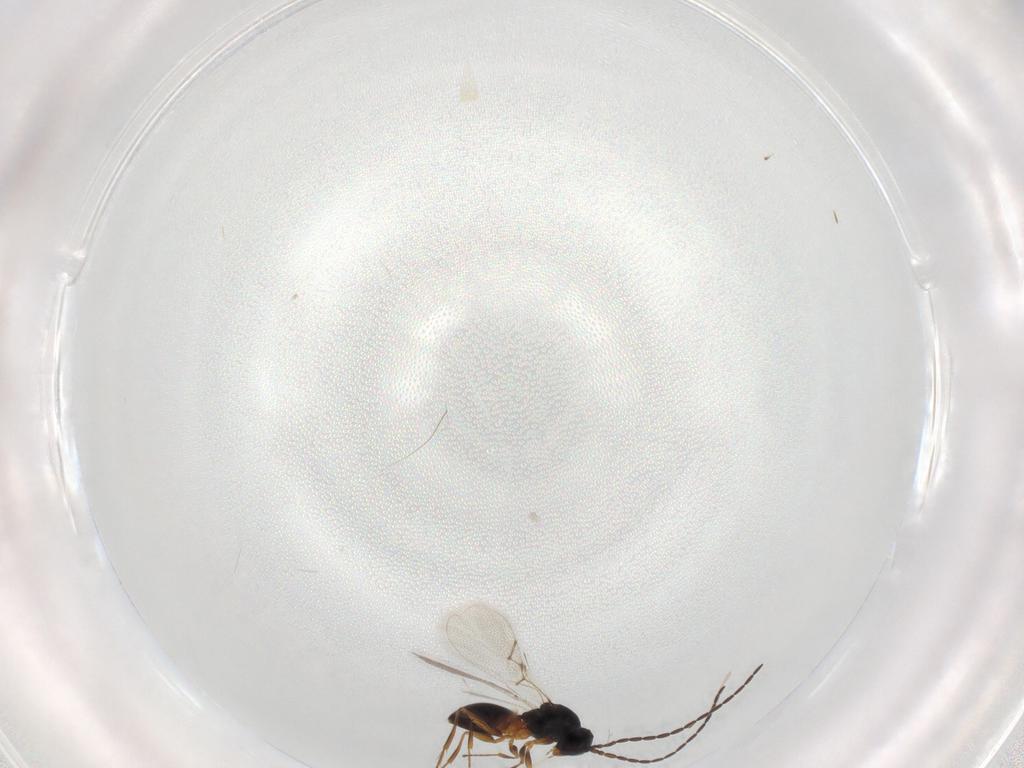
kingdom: Animalia
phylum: Arthropoda
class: Insecta
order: Hymenoptera
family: Figitidae
